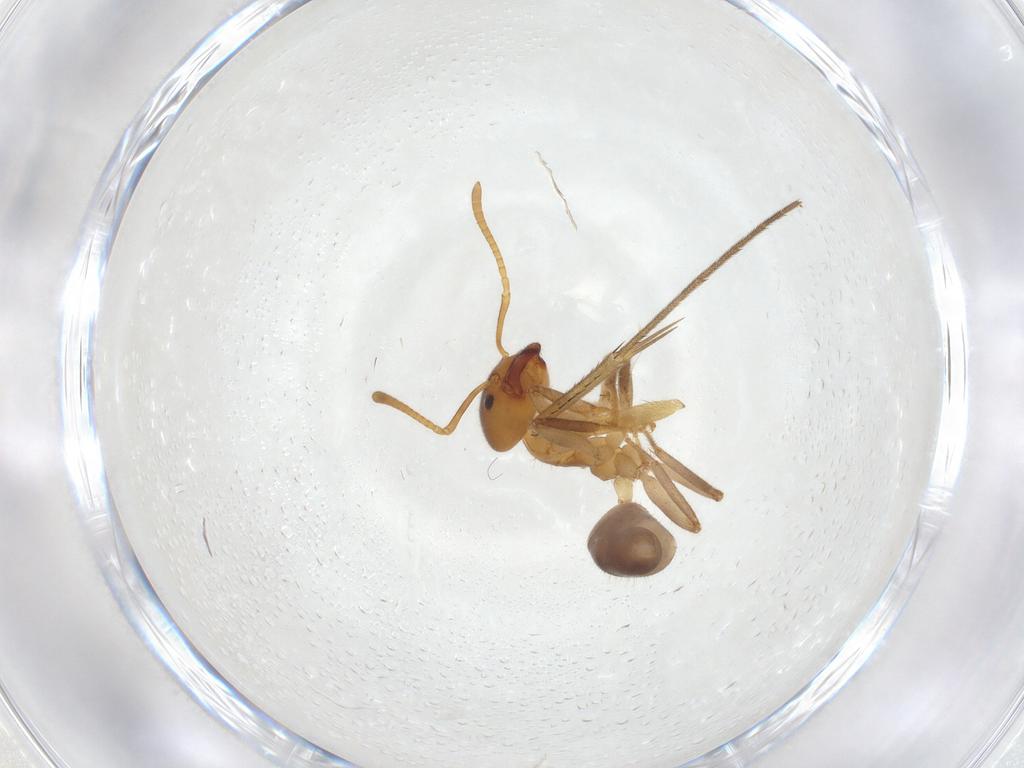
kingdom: Animalia
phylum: Arthropoda
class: Insecta
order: Hymenoptera
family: Formicidae
